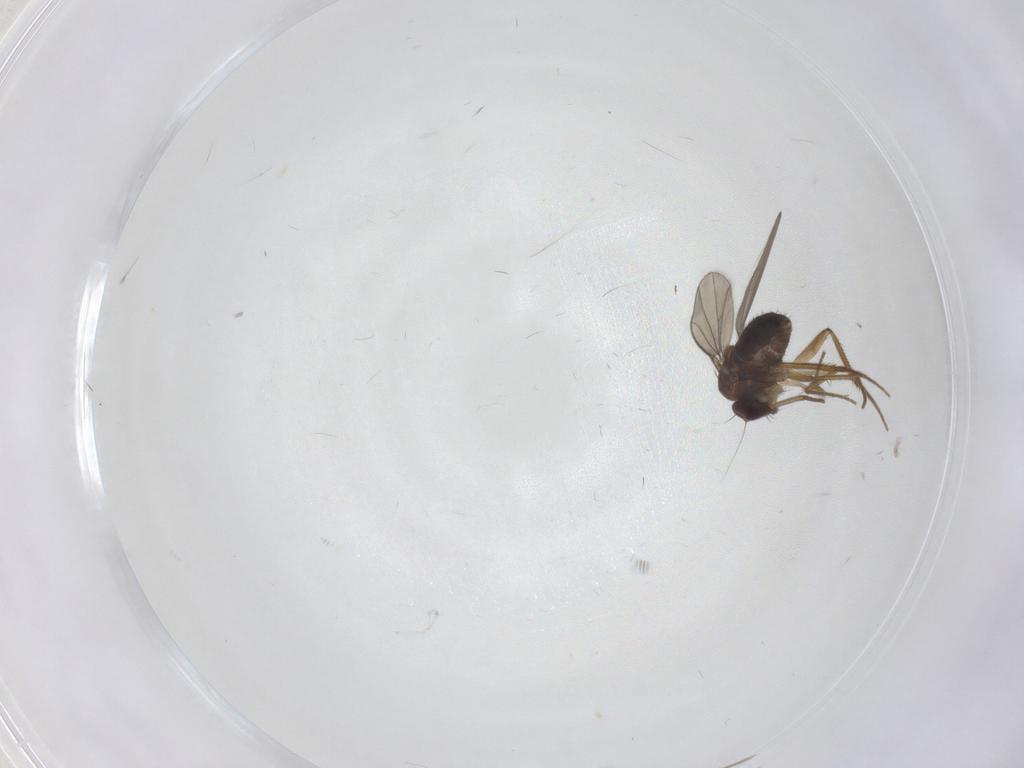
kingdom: Animalia
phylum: Arthropoda
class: Insecta
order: Diptera
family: Dolichopodidae
